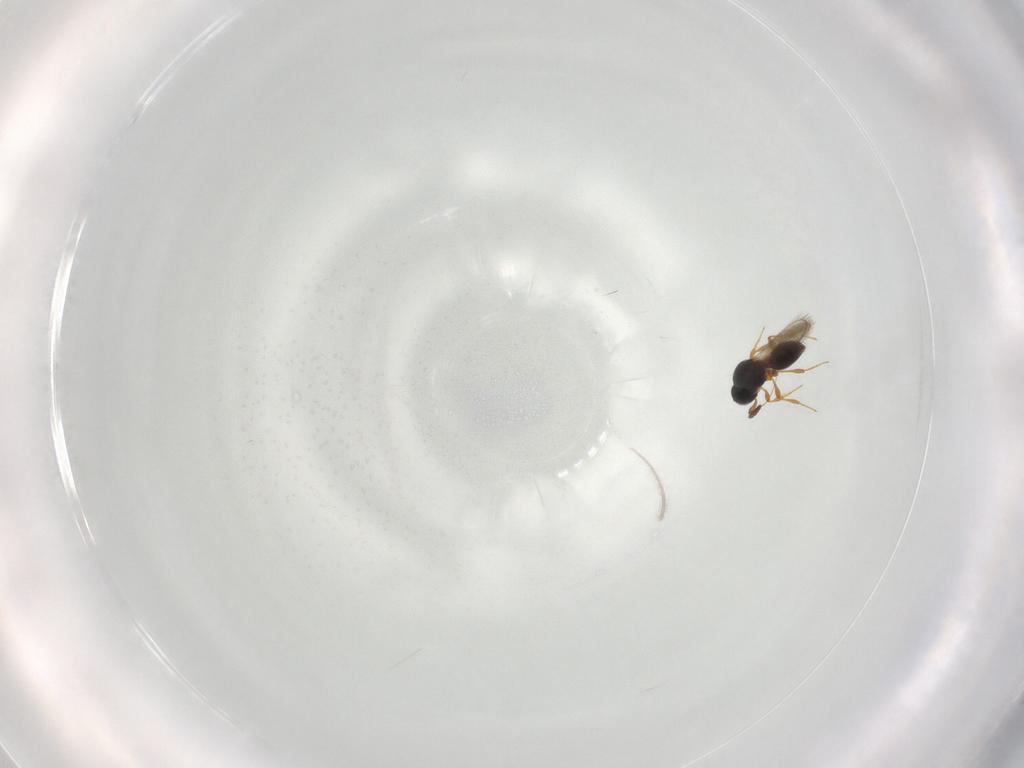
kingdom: Animalia
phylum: Arthropoda
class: Insecta
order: Hymenoptera
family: Platygastridae
